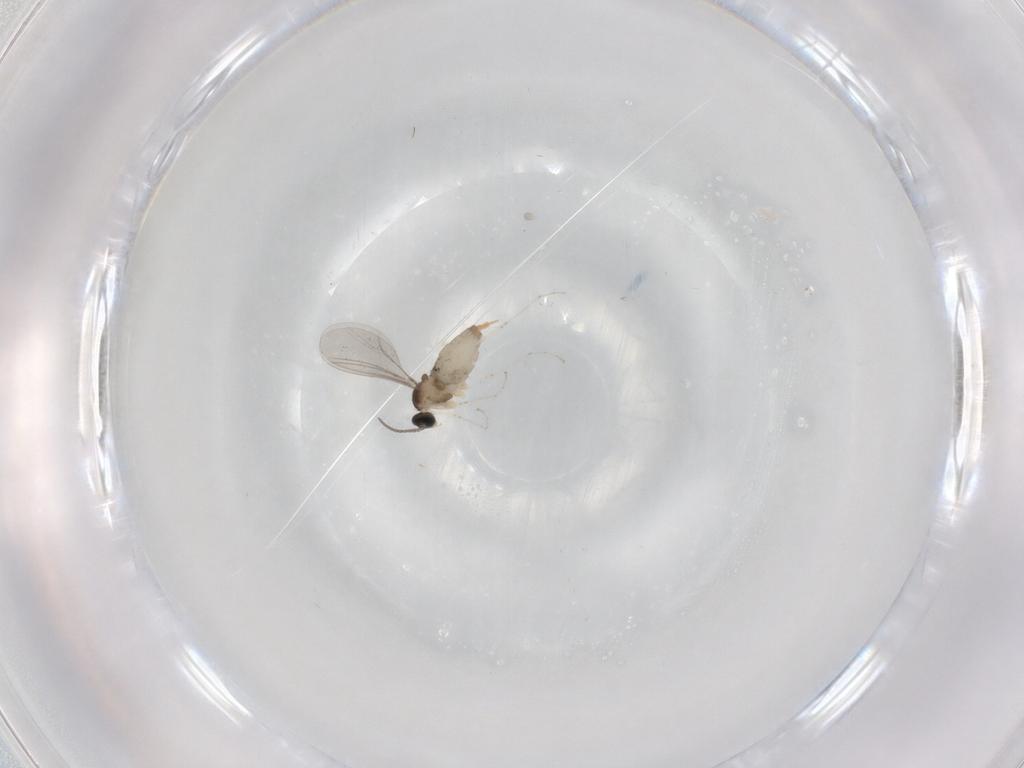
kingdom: Animalia
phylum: Arthropoda
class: Insecta
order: Diptera
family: Cecidomyiidae
